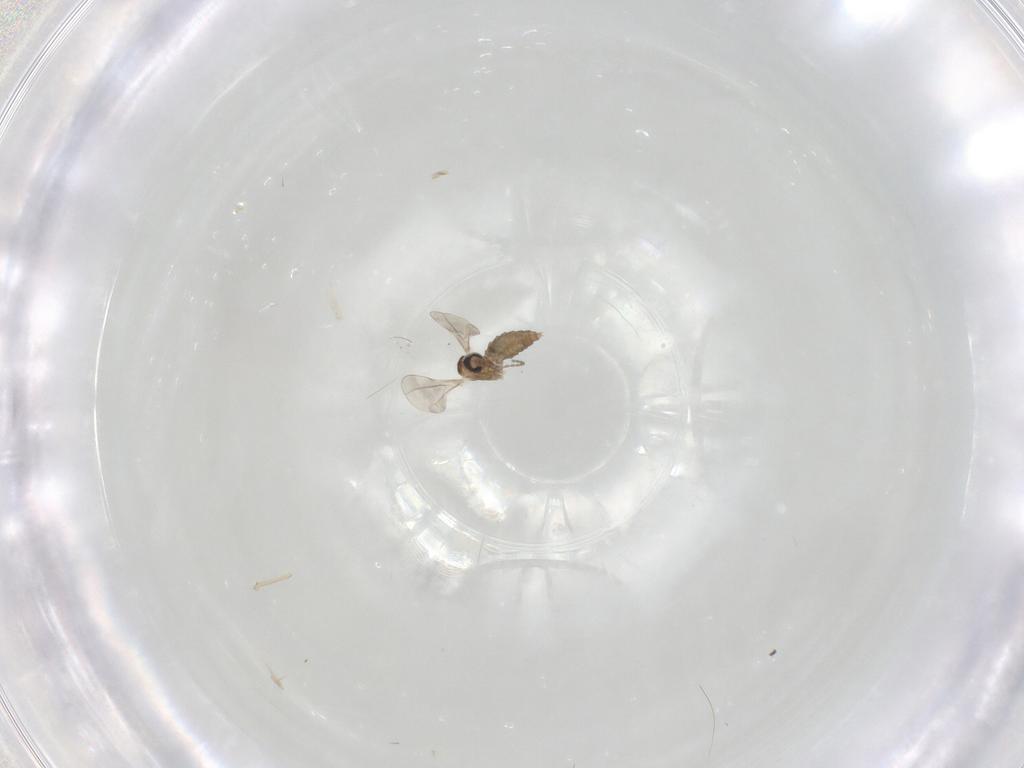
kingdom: Animalia
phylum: Arthropoda
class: Insecta
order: Diptera
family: Cecidomyiidae
